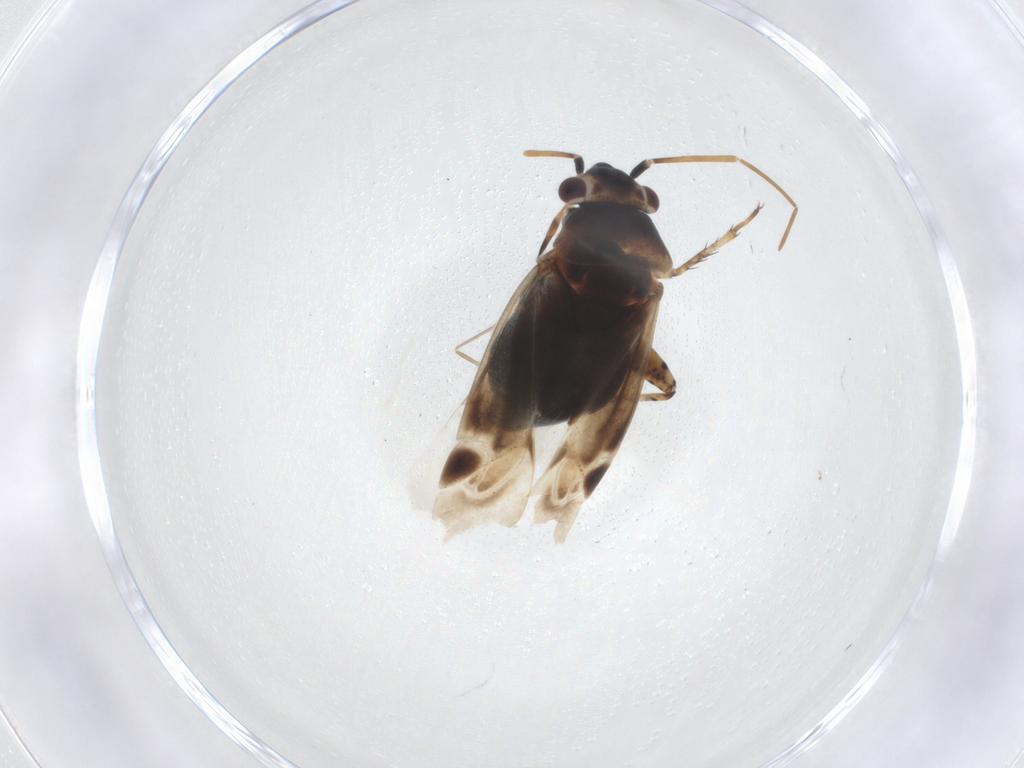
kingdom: Animalia
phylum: Arthropoda
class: Insecta
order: Hemiptera
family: Miridae
